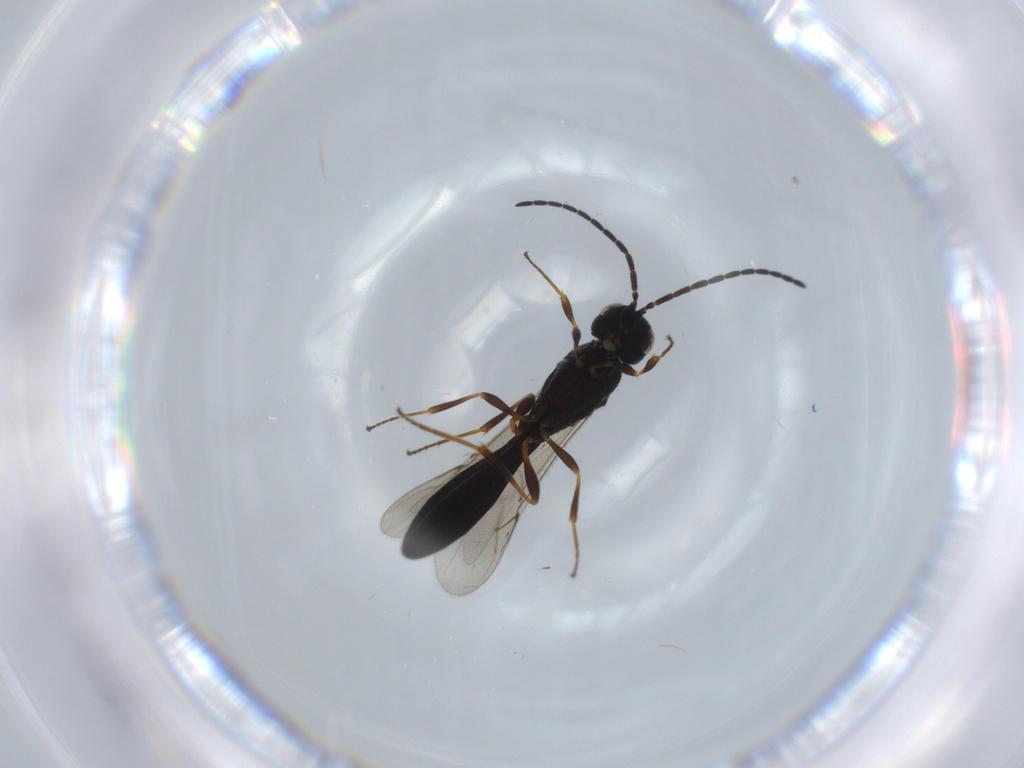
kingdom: Animalia
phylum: Arthropoda
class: Insecta
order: Hymenoptera
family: Scelionidae
